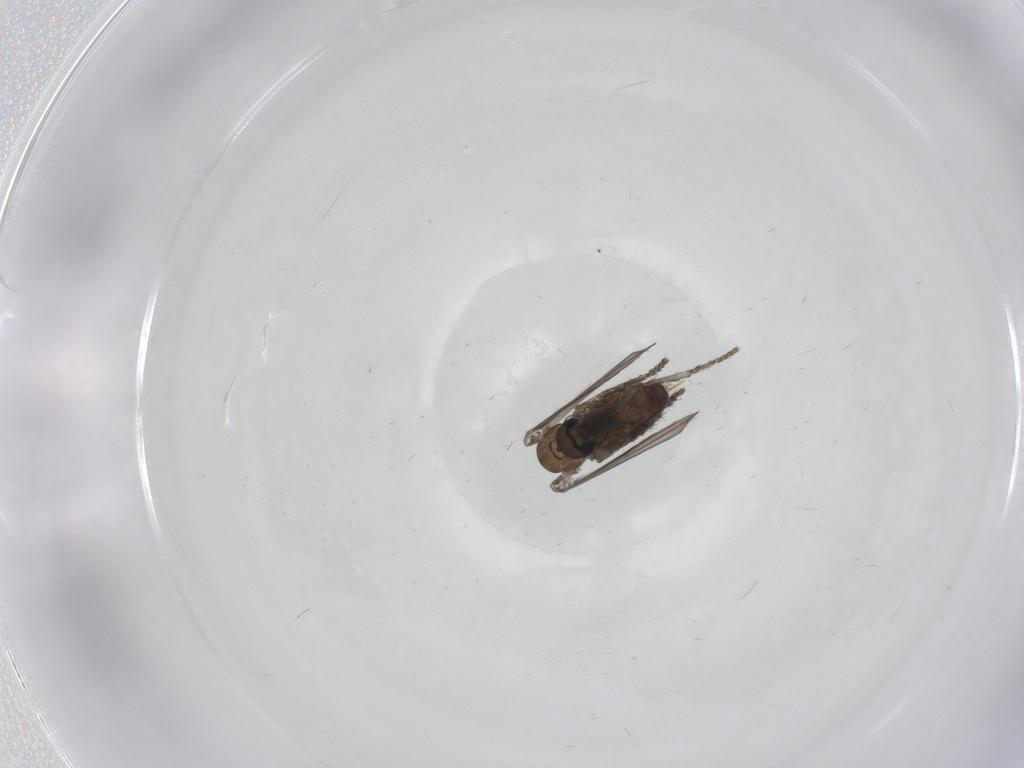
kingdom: Animalia
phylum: Arthropoda
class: Insecta
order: Diptera
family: Psychodidae
